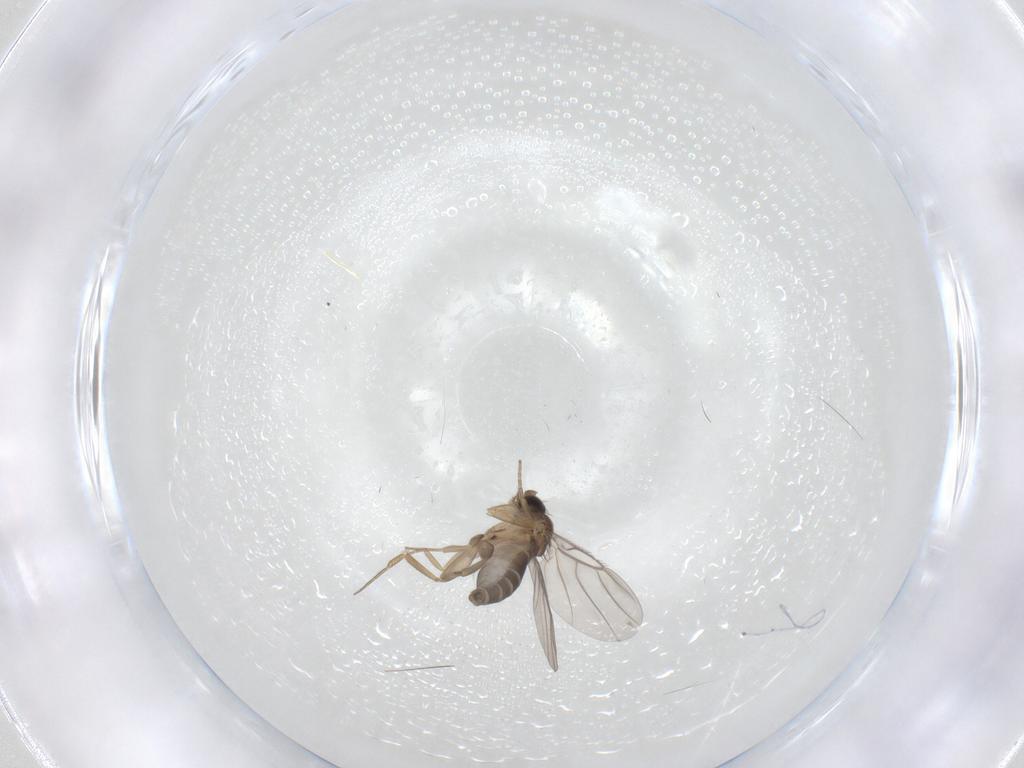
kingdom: Animalia
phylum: Arthropoda
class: Insecta
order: Diptera
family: Phoridae
